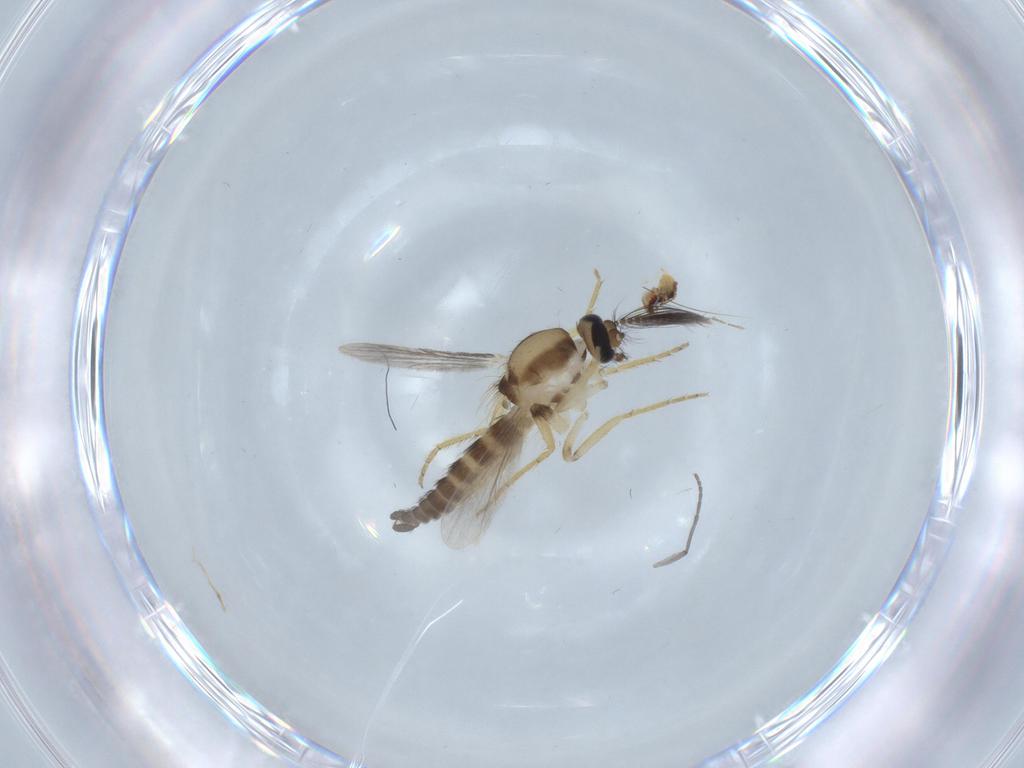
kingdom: Animalia
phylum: Arthropoda
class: Insecta
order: Diptera
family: Ceratopogonidae
